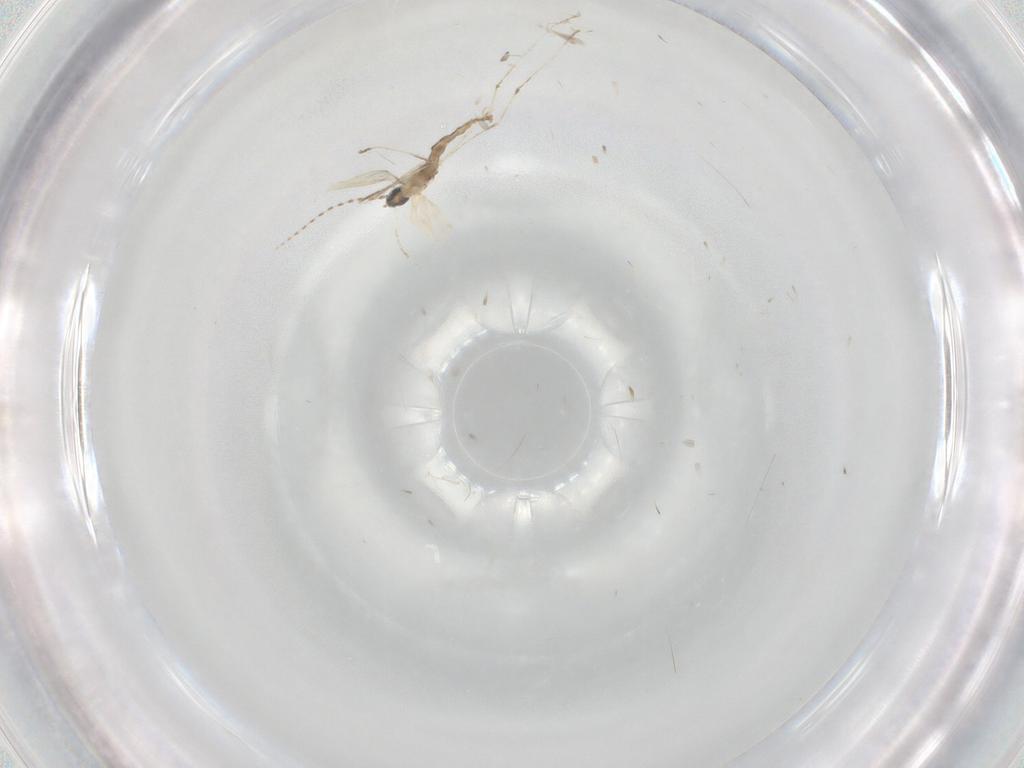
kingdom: Animalia
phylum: Arthropoda
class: Insecta
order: Diptera
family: Cecidomyiidae
